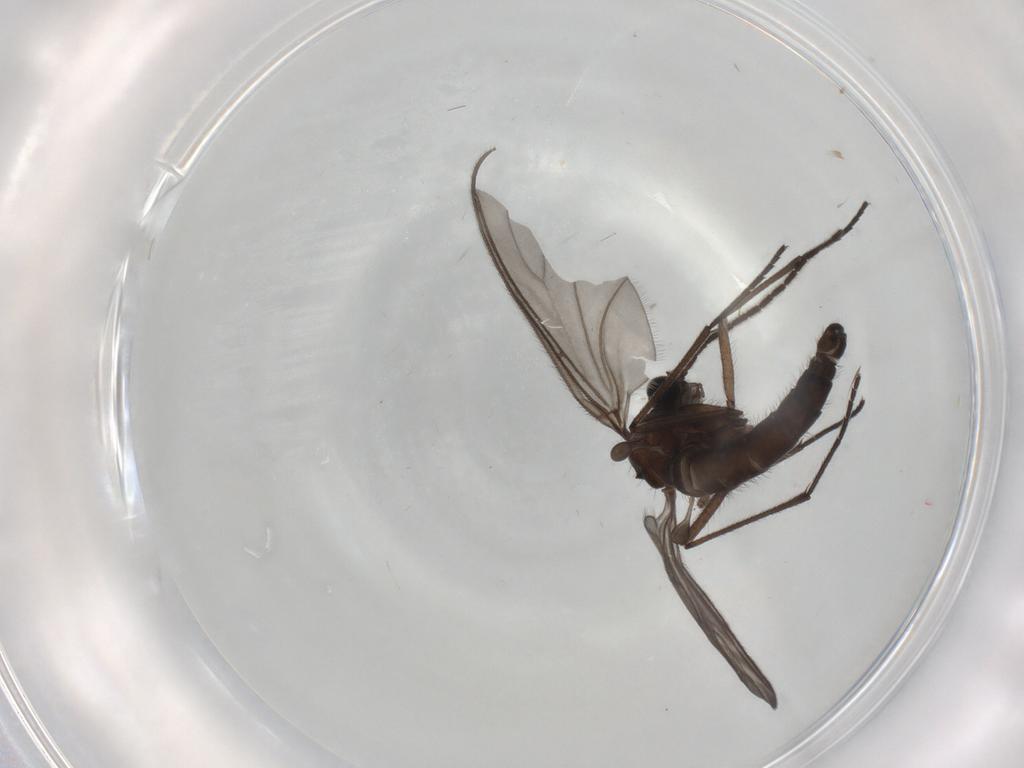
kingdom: Animalia
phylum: Arthropoda
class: Insecta
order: Diptera
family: Sciaridae
